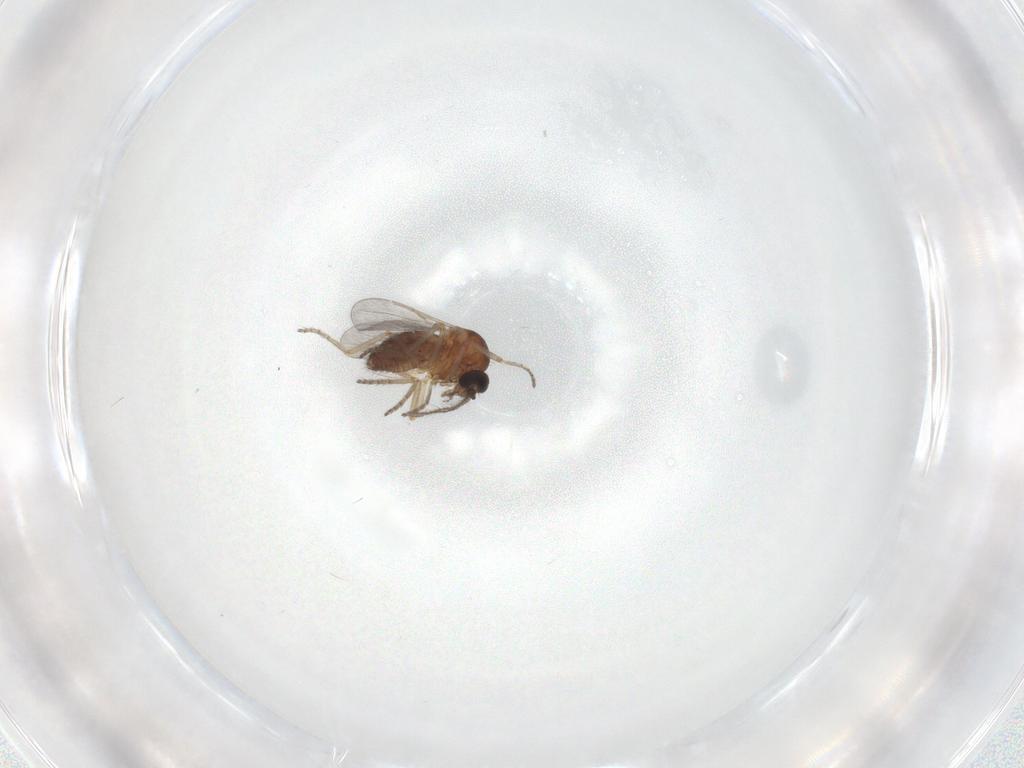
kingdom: Animalia
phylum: Arthropoda
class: Insecta
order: Diptera
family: Ceratopogonidae
